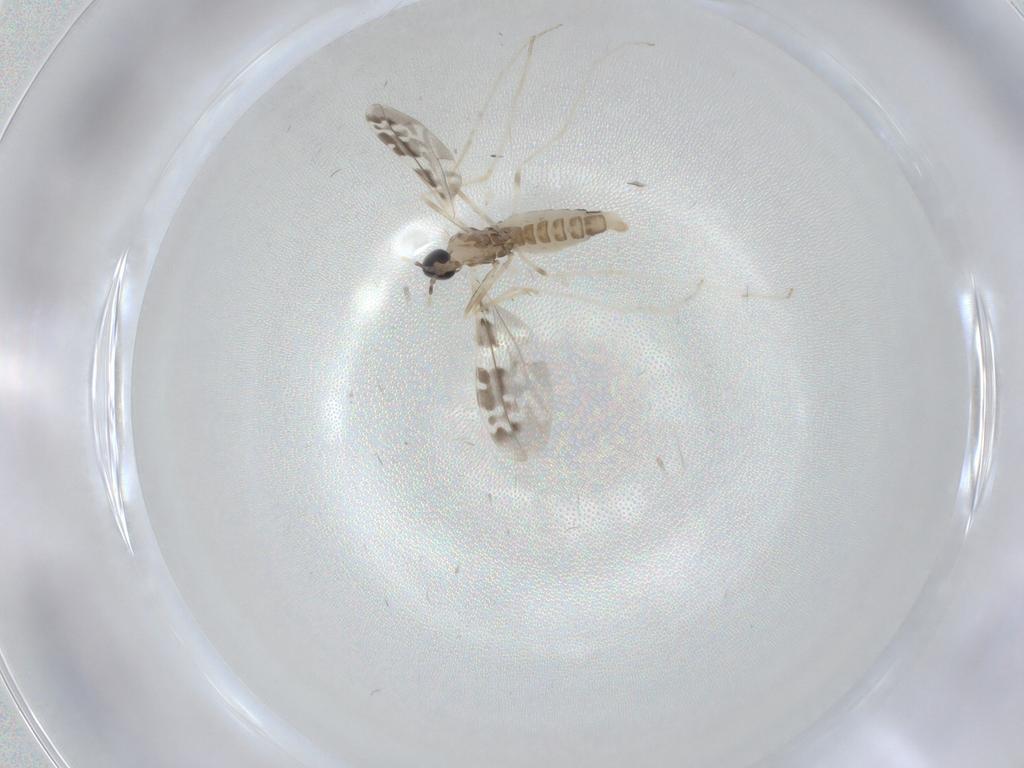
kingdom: Animalia
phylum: Arthropoda
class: Insecta
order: Diptera
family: Cecidomyiidae
